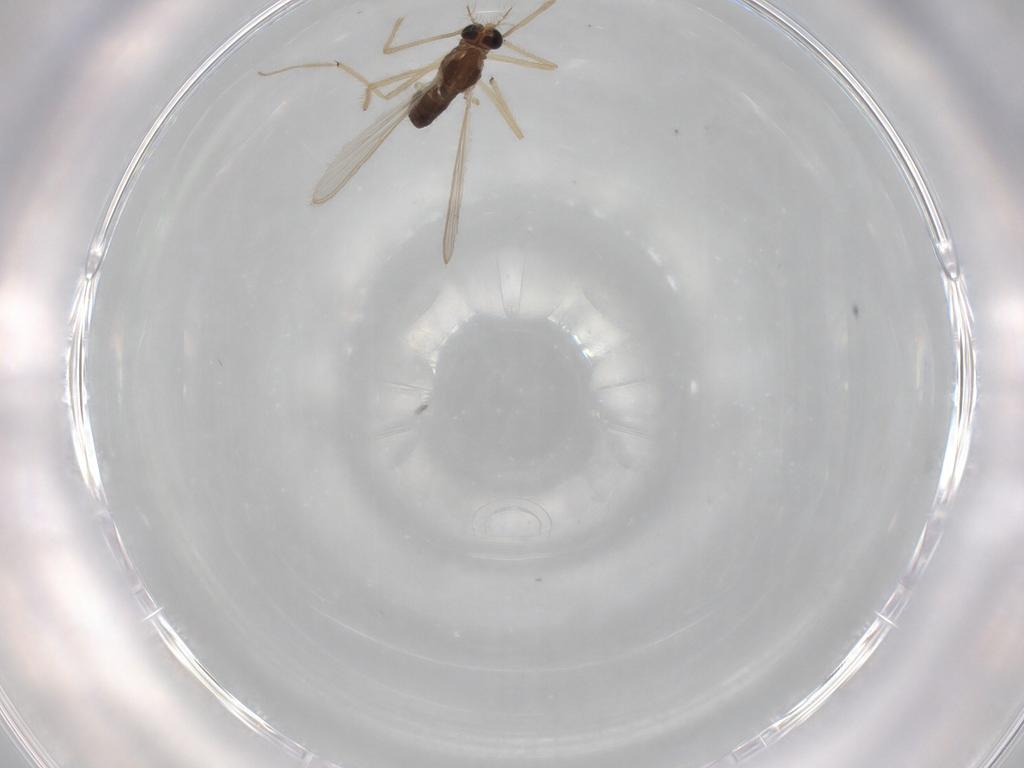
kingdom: Animalia
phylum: Arthropoda
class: Insecta
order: Diptera
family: Chironomidae
